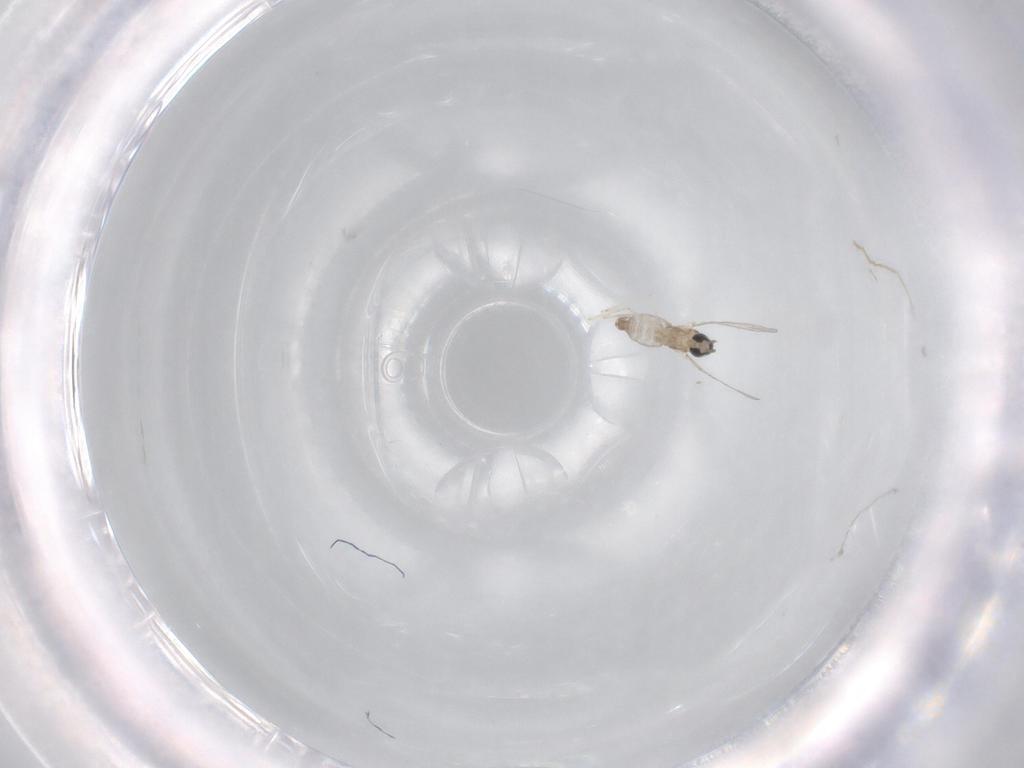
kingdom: Animalia
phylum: Arthropoda
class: Insecta
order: Diptera
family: Cecidomyiidae
